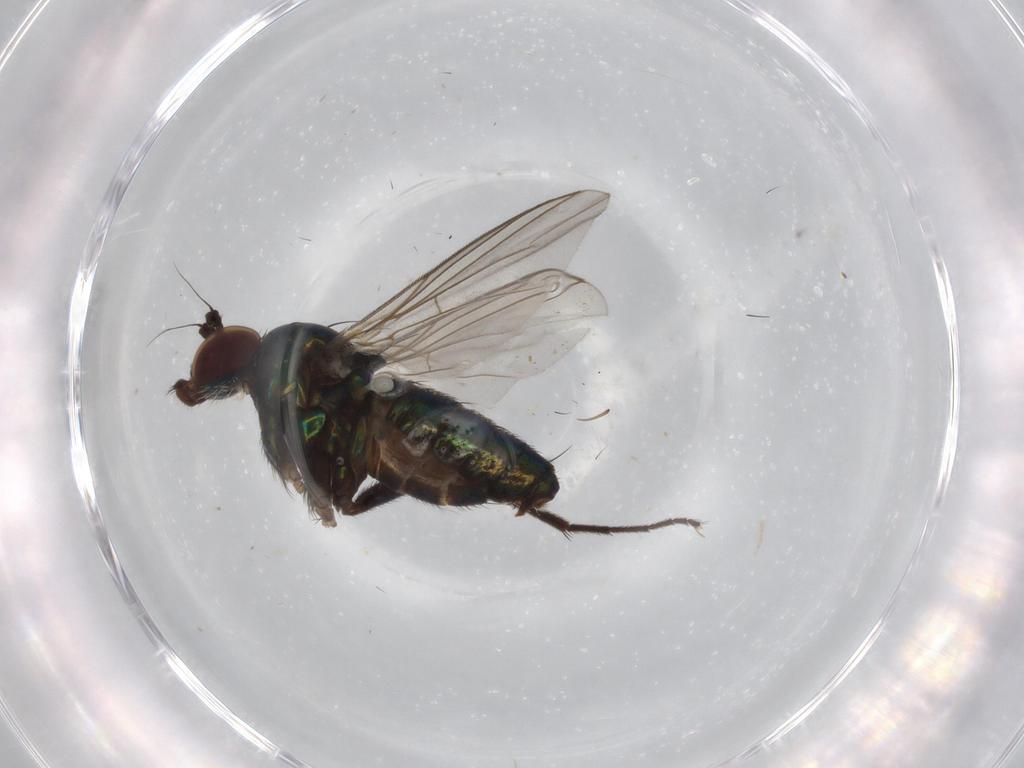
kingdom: Animalia
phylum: Arthropoda
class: Insecta
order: Diptera
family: Dolichopodidae
